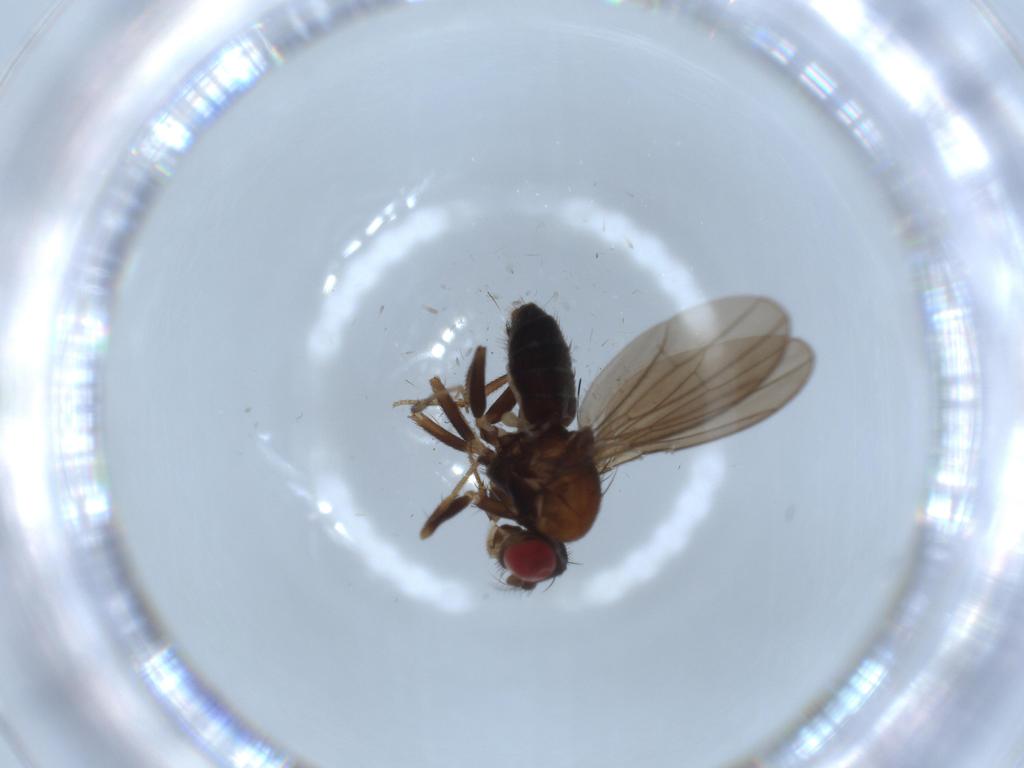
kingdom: Animalia
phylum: Arthropoda
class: Insecta
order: Diptera
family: Drosophilidae
